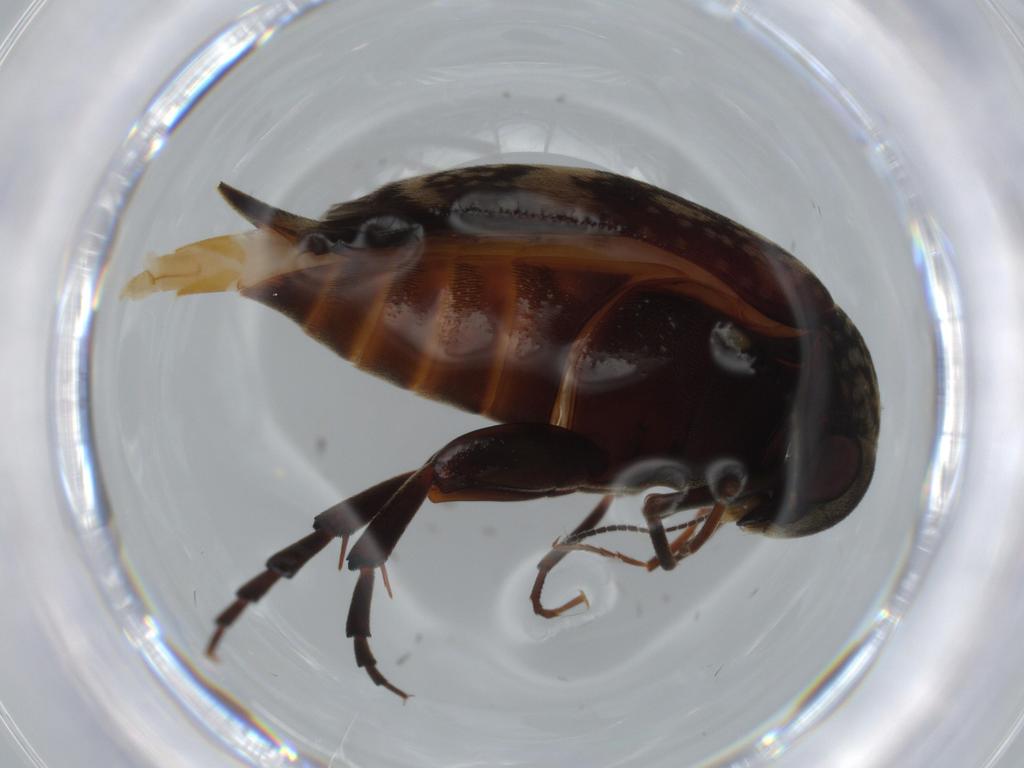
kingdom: Animalia
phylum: Arthropoda
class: Insecta
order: Coleoptera
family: Mordellidae
